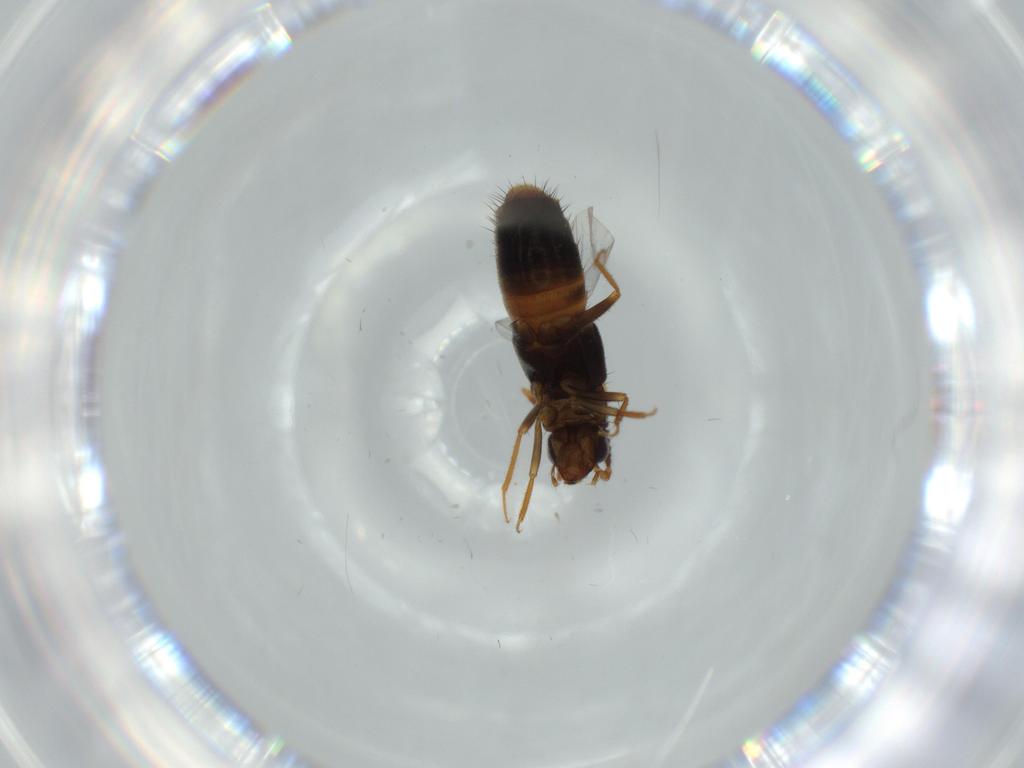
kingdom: Animalia
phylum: Arthropoda
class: Insecta
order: Coleoptera
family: Staphylinidae
